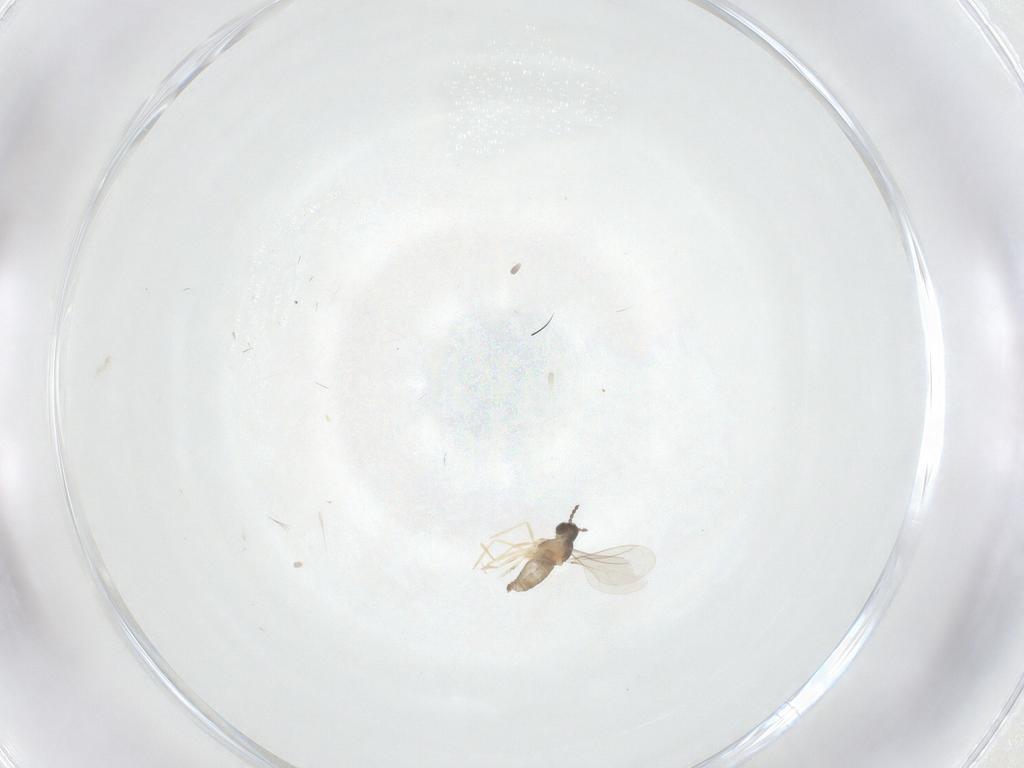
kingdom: Animalia
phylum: Arthropoda
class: Insecta
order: Diptera
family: Cecidomyiidae
